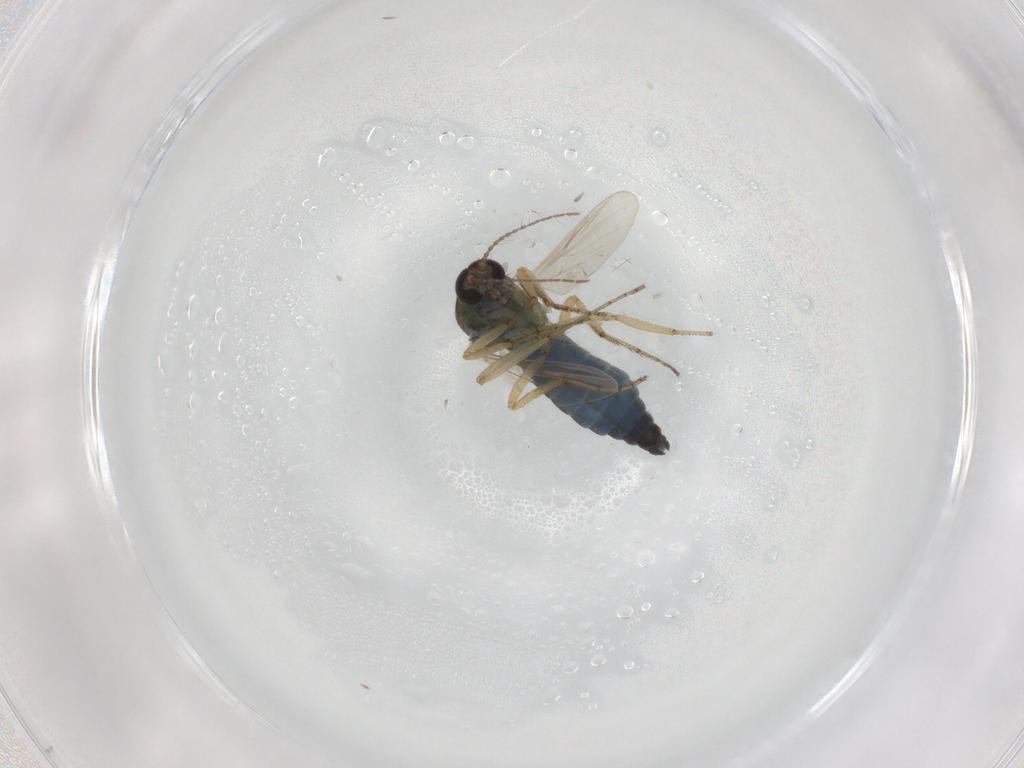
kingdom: Animalia
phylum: Arthropoda
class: Insecta
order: Diptera
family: Ceratopogonidae
